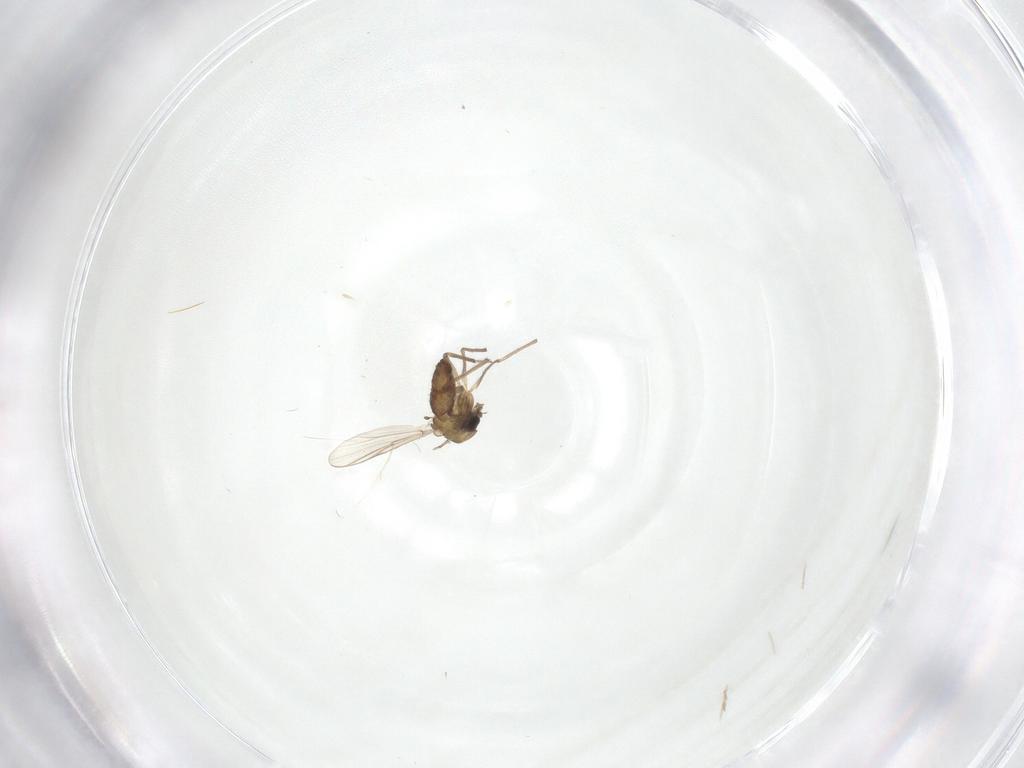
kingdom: Animalia
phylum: Arthropoda
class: Insecta
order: Diptera
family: Chironomidae
